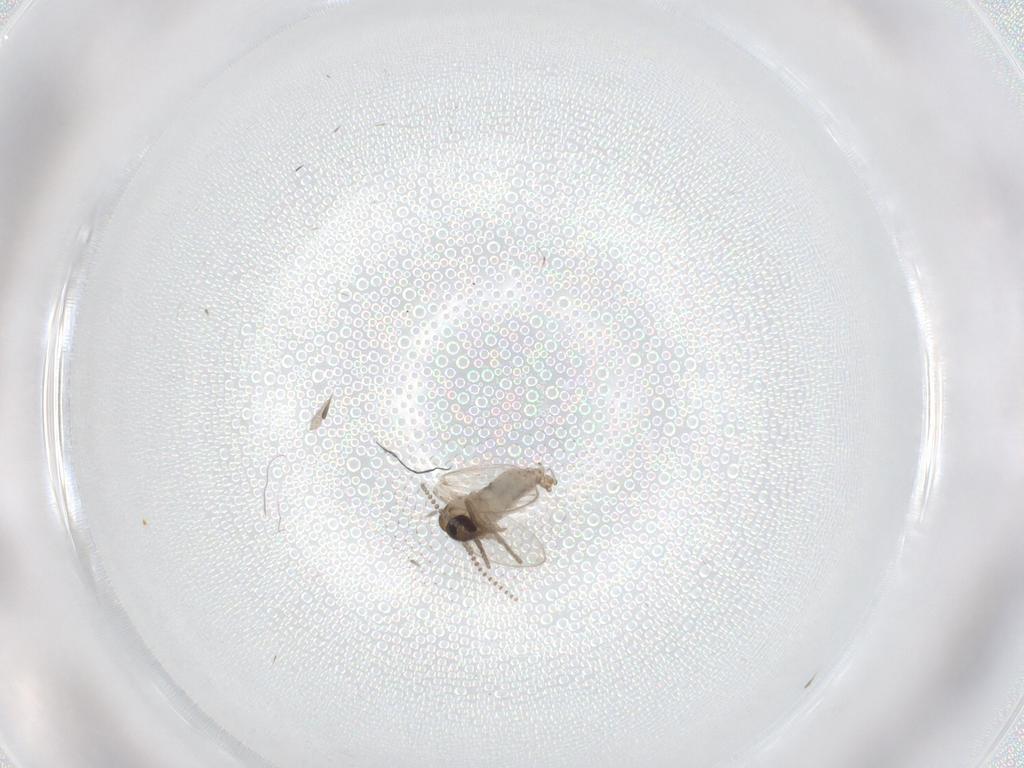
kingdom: Animalia
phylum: Arthropoda
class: Insecta
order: Diptera
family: Psychodidae
